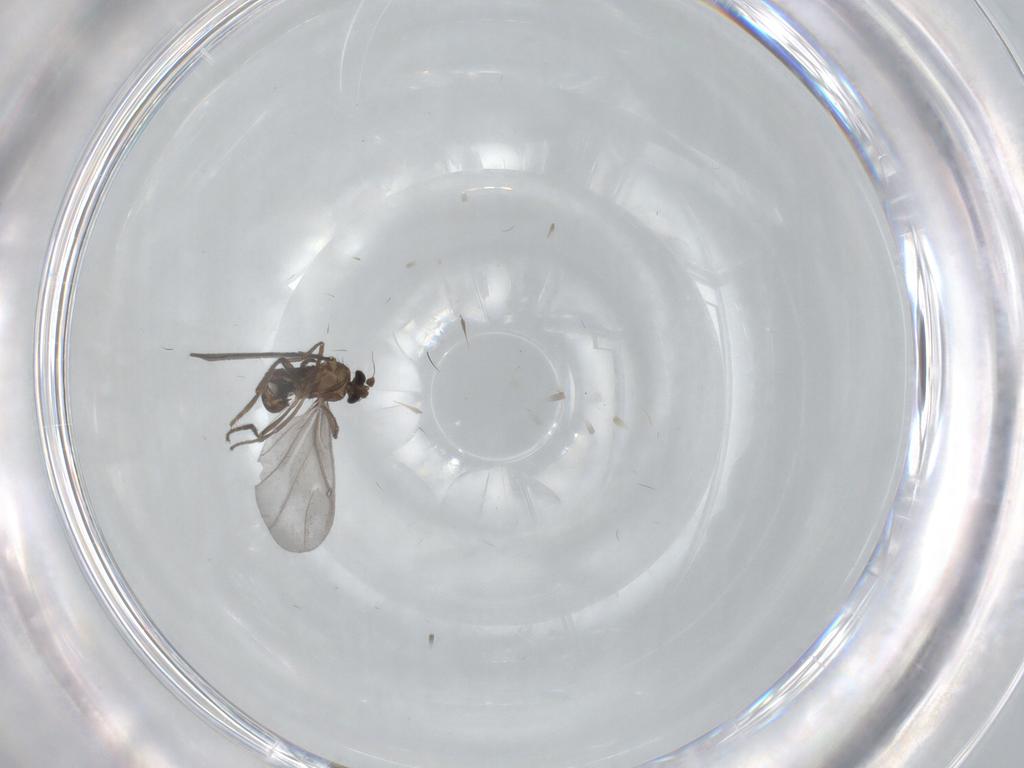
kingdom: Animalia
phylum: Arthropoda
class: Insecta
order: Diptera
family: Phoridae
